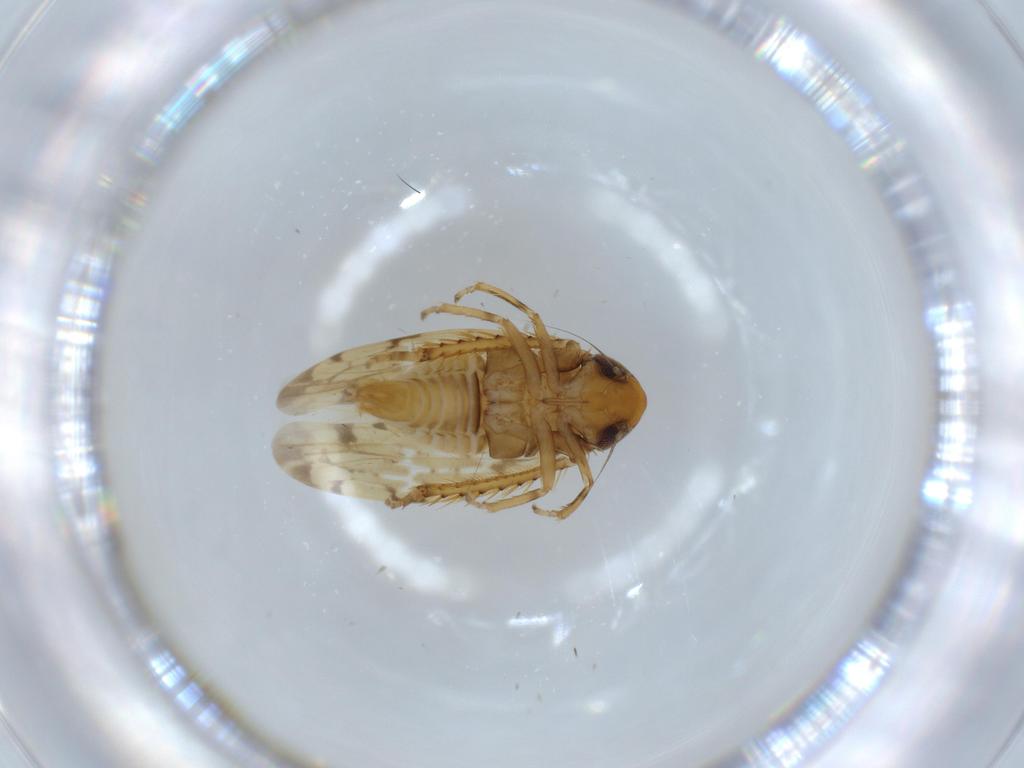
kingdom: Animalia
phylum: Arthropoda
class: Insecta
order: Hemiptera
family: Cicadellidae
